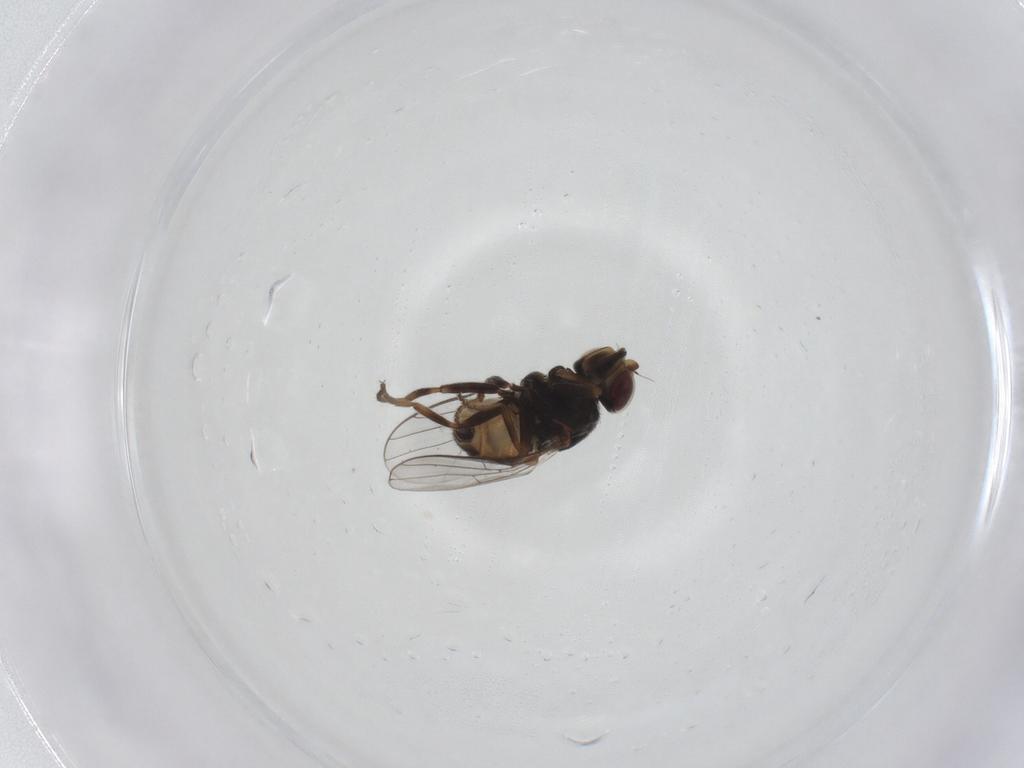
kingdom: Animalia
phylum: Arthropoda
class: Insecta
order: Diptera
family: Chloropidae
